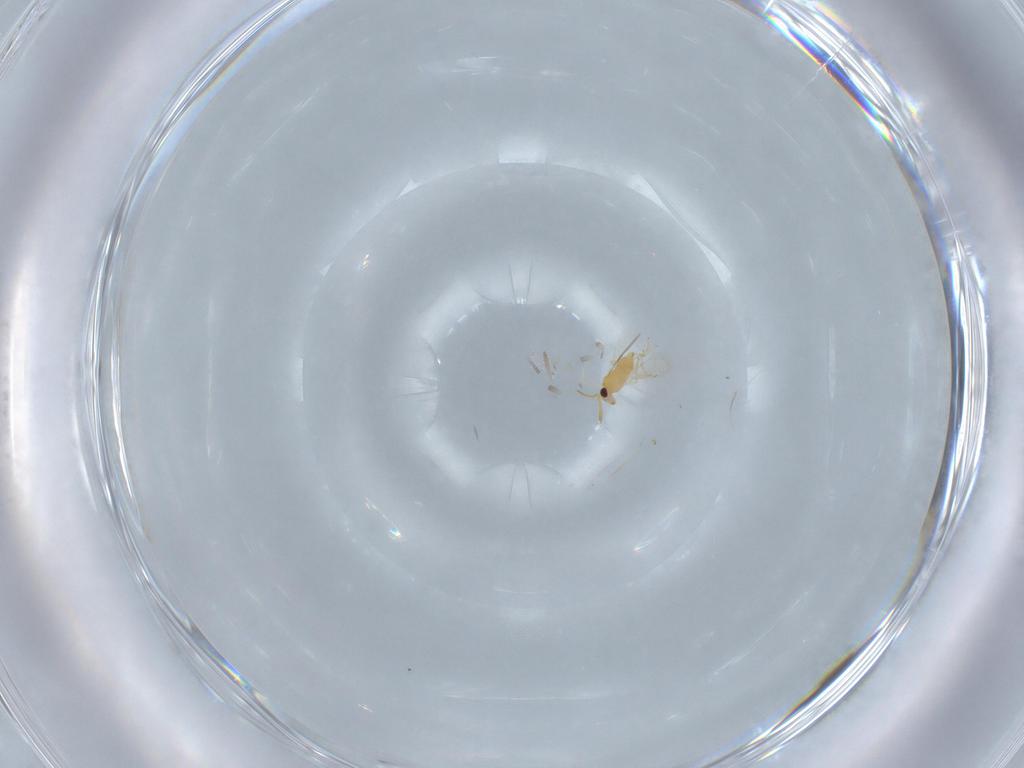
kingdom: Animalia
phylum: Arthropoda
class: Insecta
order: Hymenoptera
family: Aphelinidae
